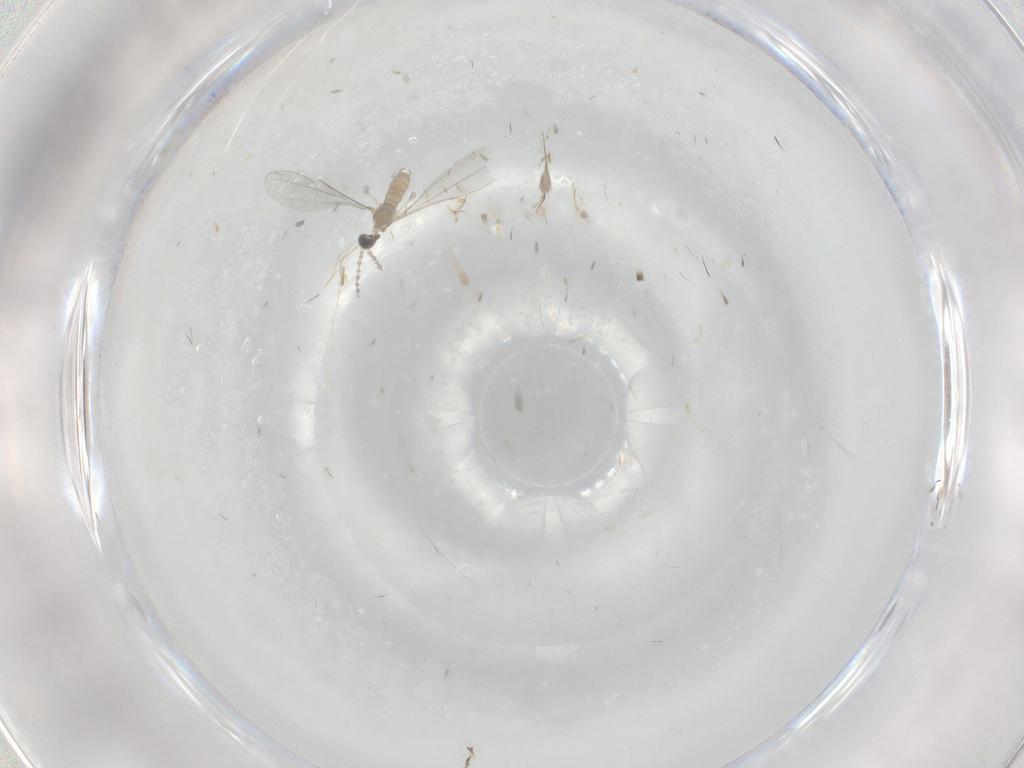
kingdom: Animalia
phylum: Arthropoda
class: Insecta
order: Diptera
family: Cecidomyiidae
